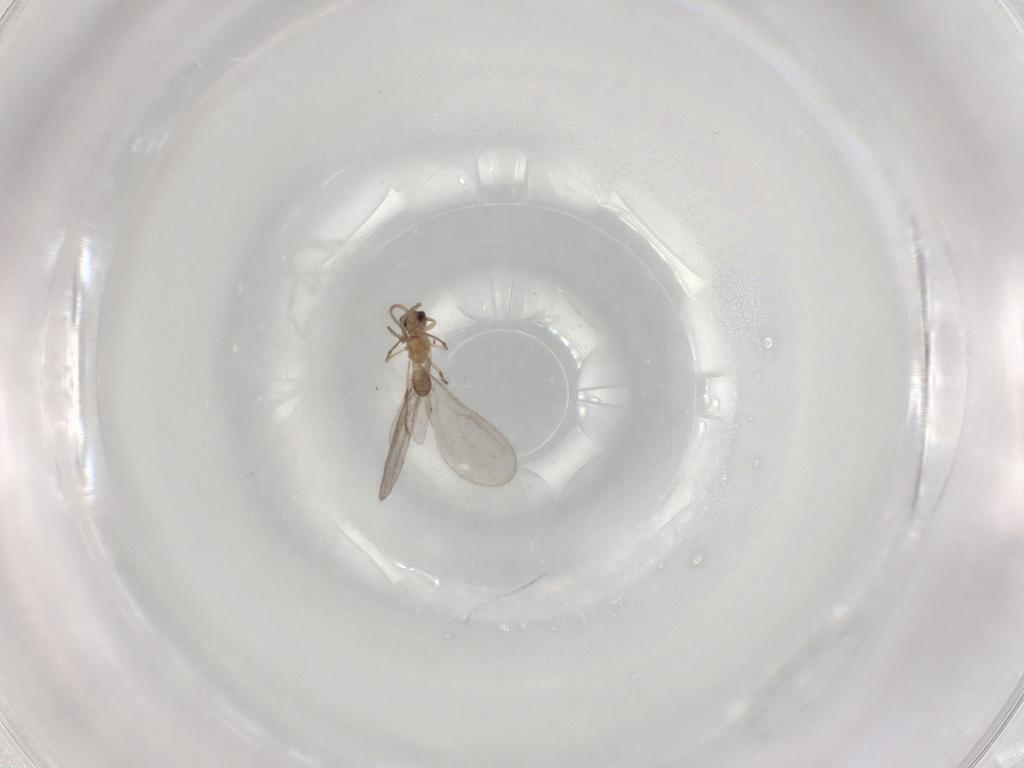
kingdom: Animalia
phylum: Arthropoda
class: Insecta
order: Hymenoptera
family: Formicidae
